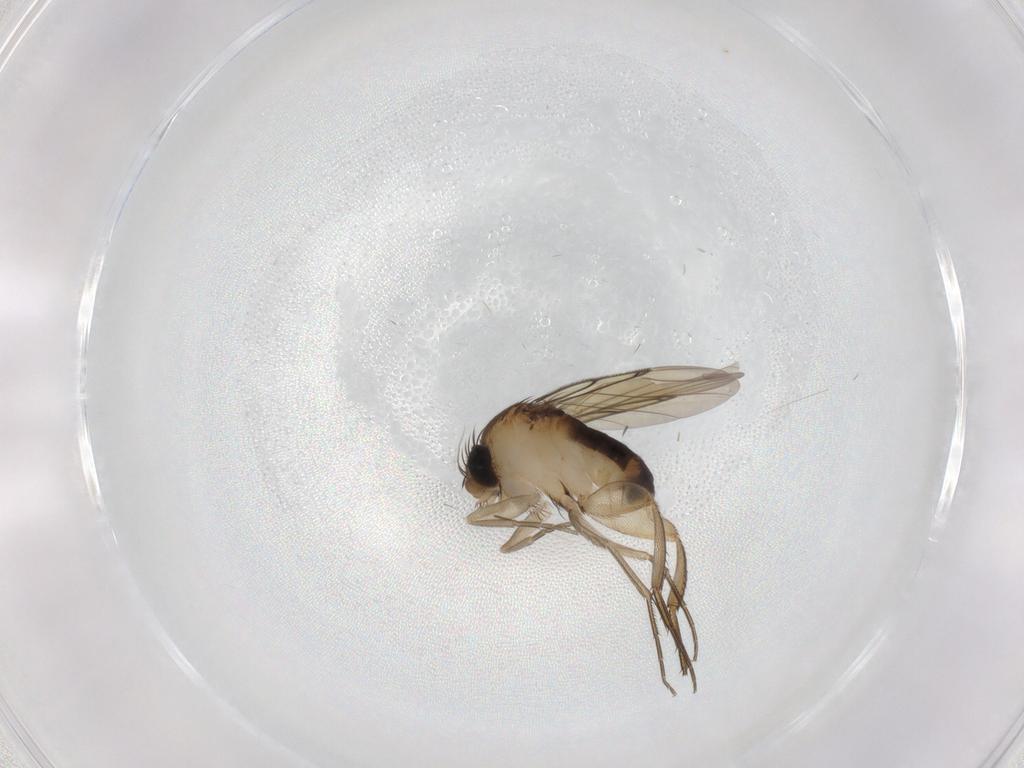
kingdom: Animalia
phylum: Arthropoda
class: Insecta
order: Diptera
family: Phoridae
